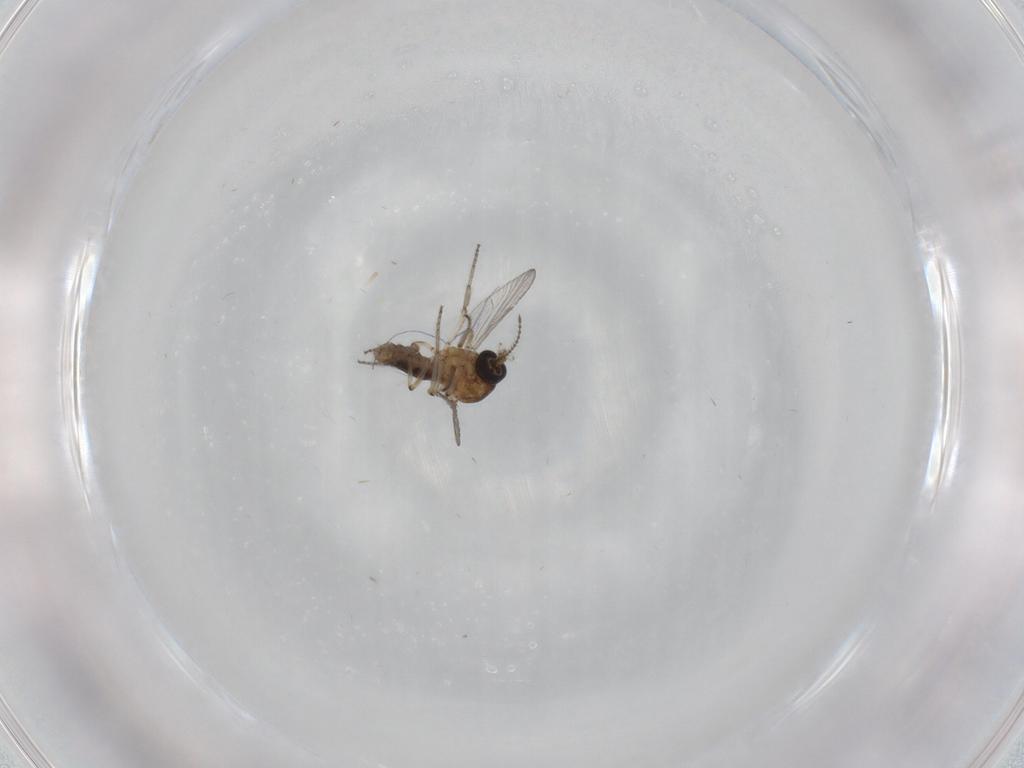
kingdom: Animalia
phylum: Arthropoda
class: Insecta
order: Diptera
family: Ceratopogonidae
